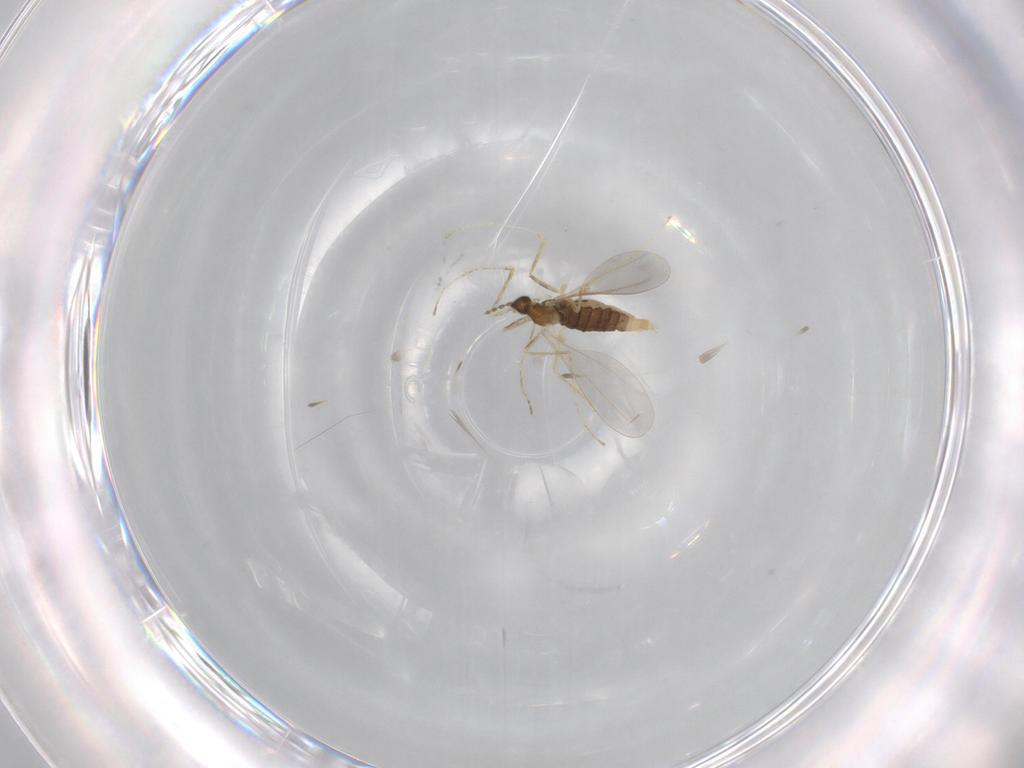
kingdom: Animalia
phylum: Arthropoda
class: Insecta
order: Diptera
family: Cecidomyiidae
